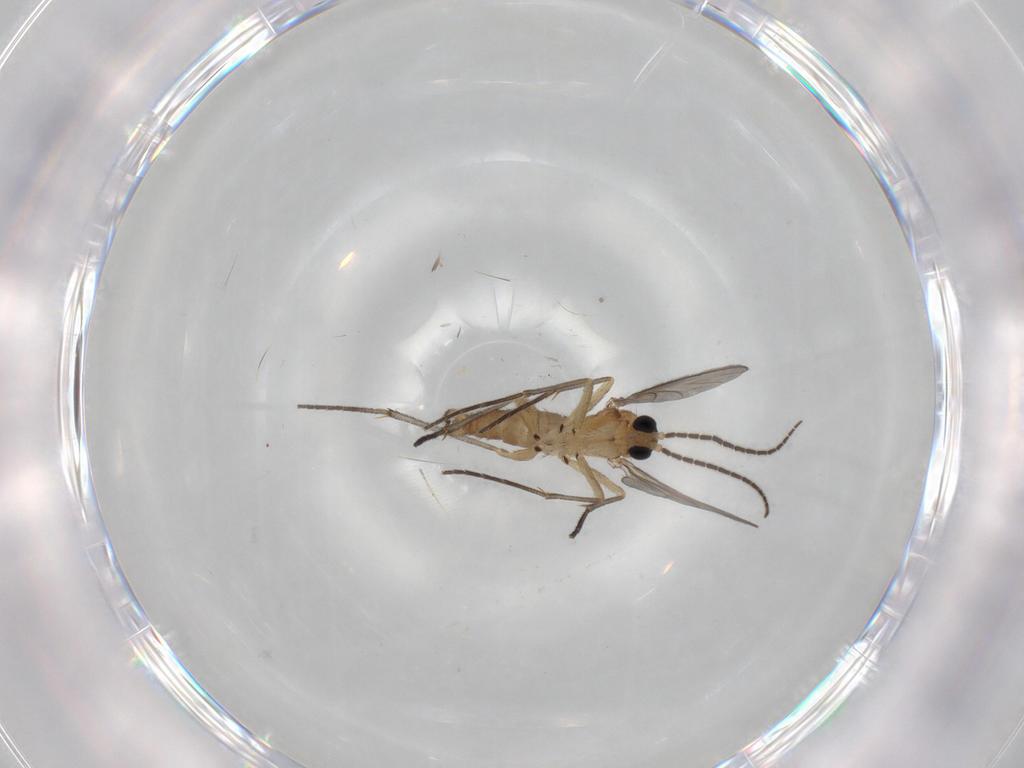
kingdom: Animalia
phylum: Arthropoda
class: Insecta
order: Diptera
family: Sciaridae
